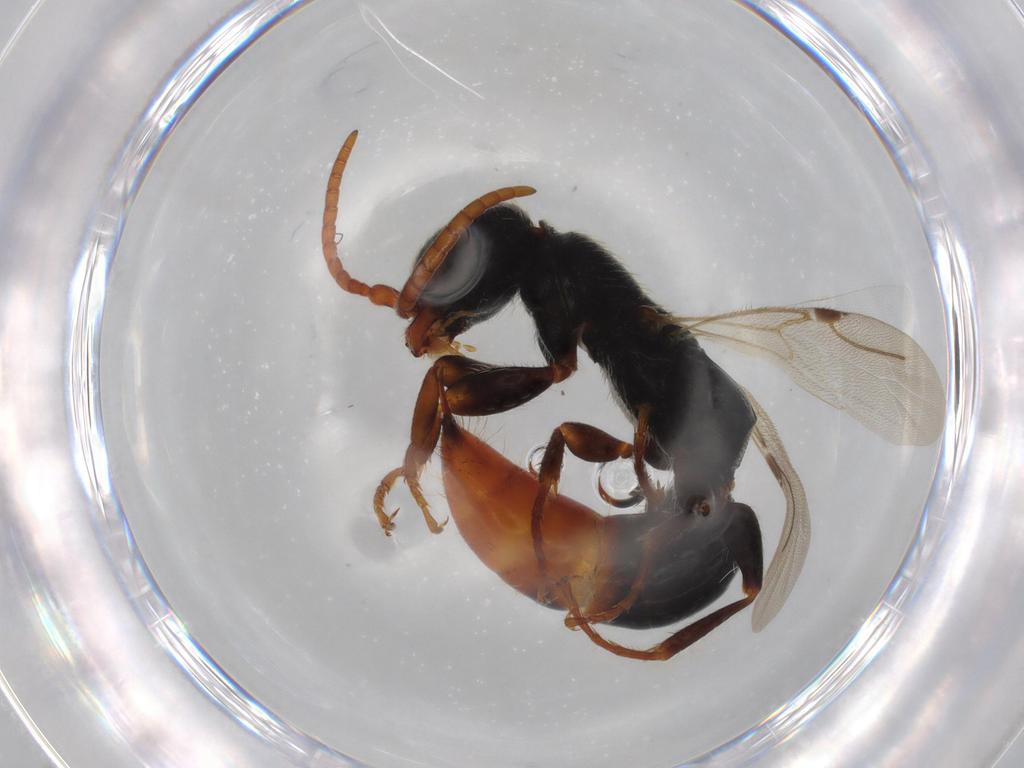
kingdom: Animalia
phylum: Arthropoda
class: Insecta
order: Hymenoptera
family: Bethylidae
